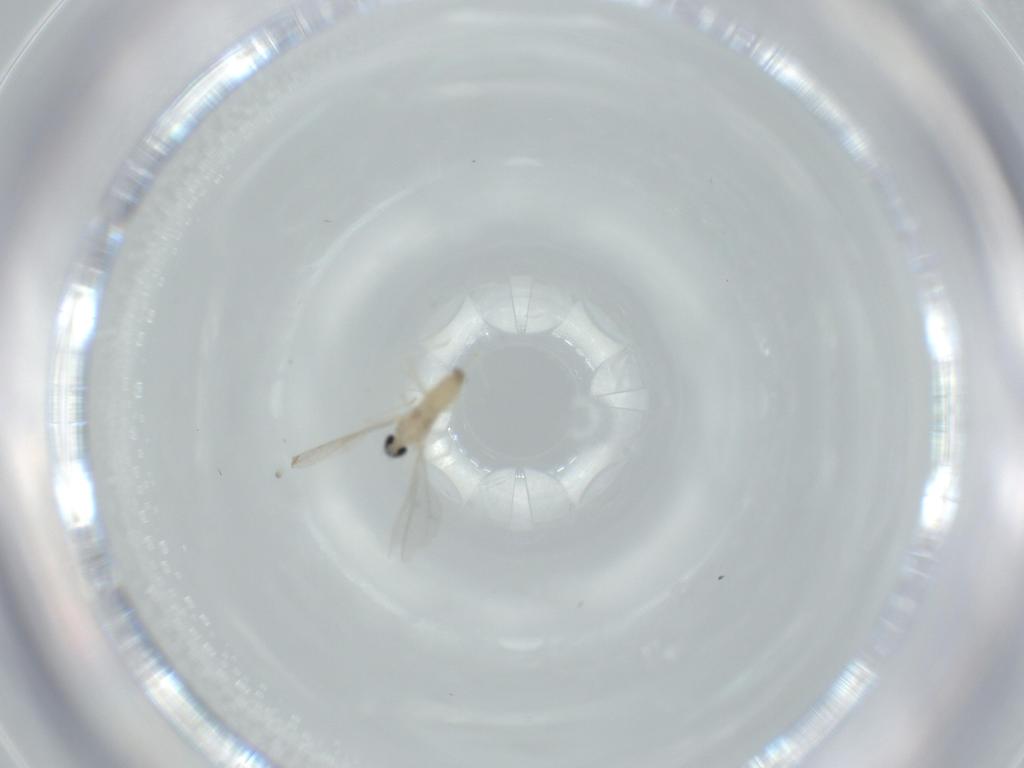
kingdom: Animalia
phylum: Arthropoda
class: Insecta
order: Diptera
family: Cecidomyiidae
